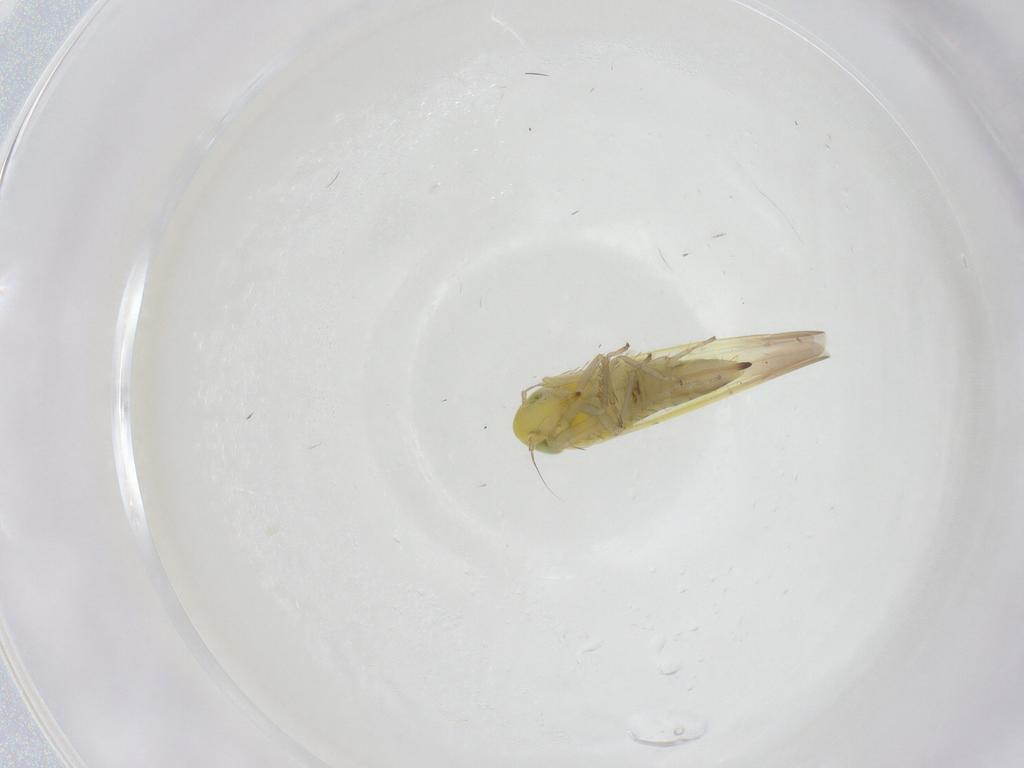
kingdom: Animalia
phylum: Arthropoda
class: Insecta
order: Hemiptera
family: Cicadellidae
